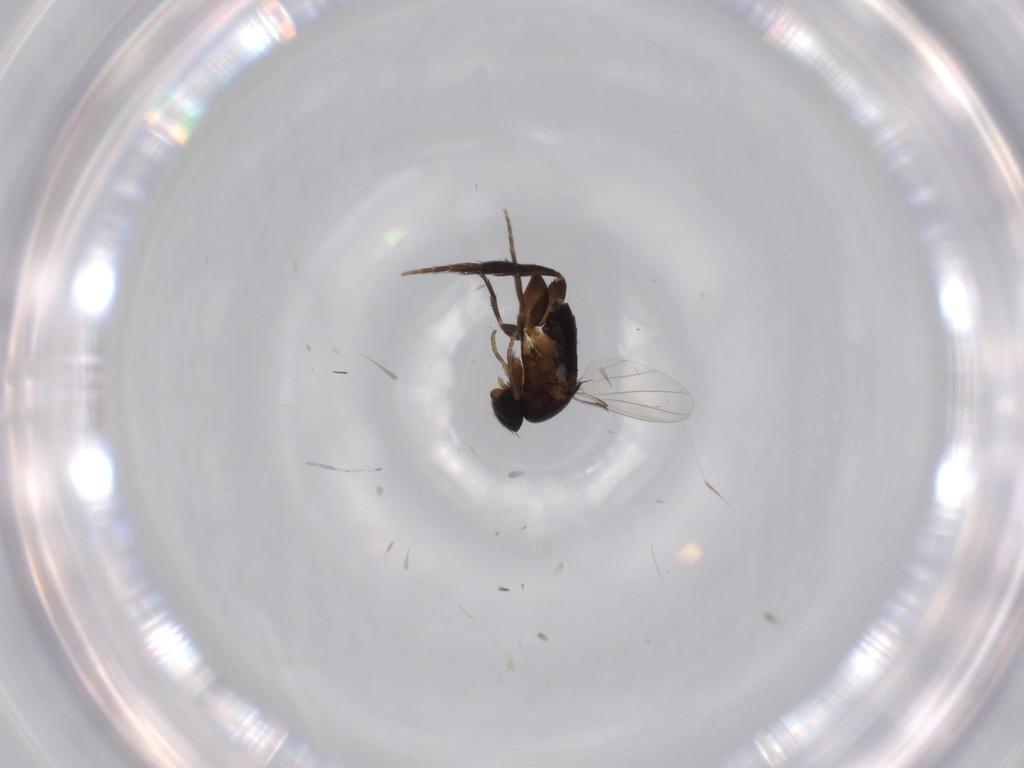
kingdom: Animalia
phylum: Arthropoda
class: Insecta
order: Diptera
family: Phoridae
